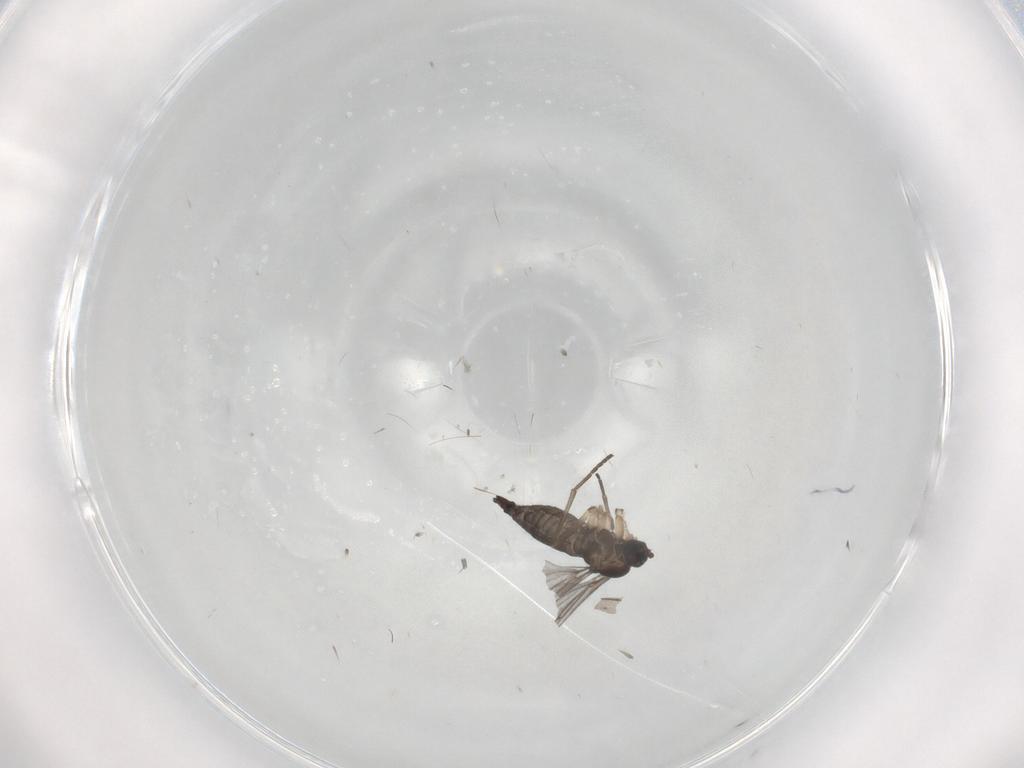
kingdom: Animalia
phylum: Arthropoda
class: Insecta
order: Diptera
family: Sciaridae
